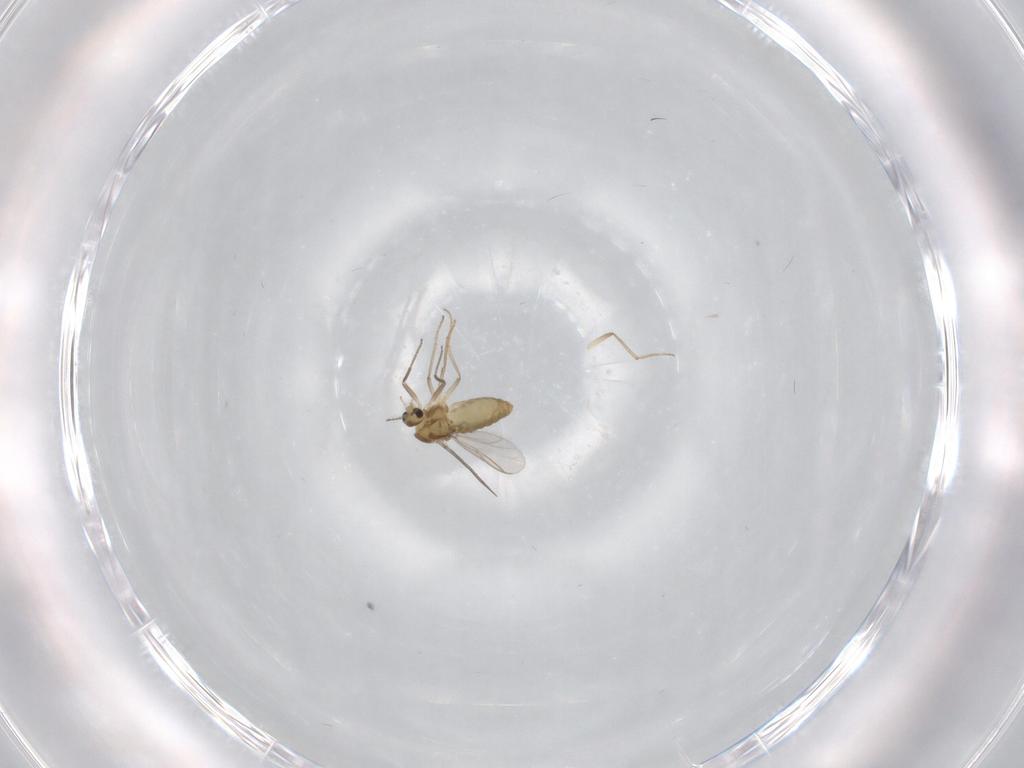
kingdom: Animalia
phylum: Arthropoda
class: Insecta
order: Diptera
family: Chironomidae
